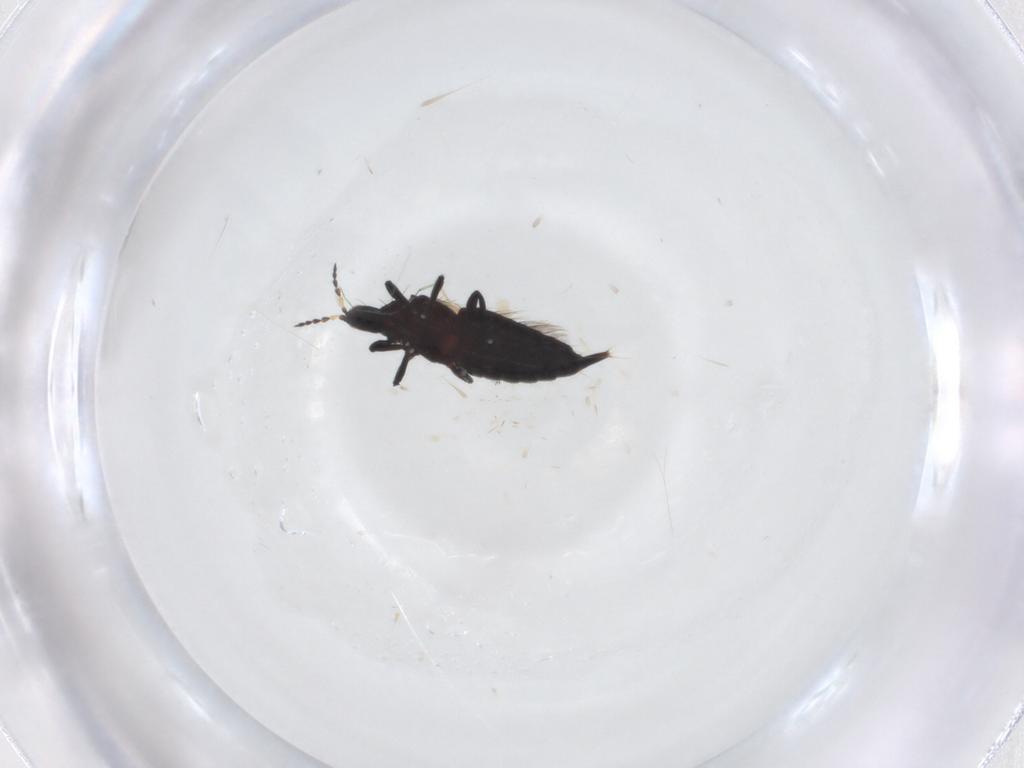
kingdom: Animalia
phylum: Arthropoda
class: Insecta
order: Thysanoptera
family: Phlaeothripidae
